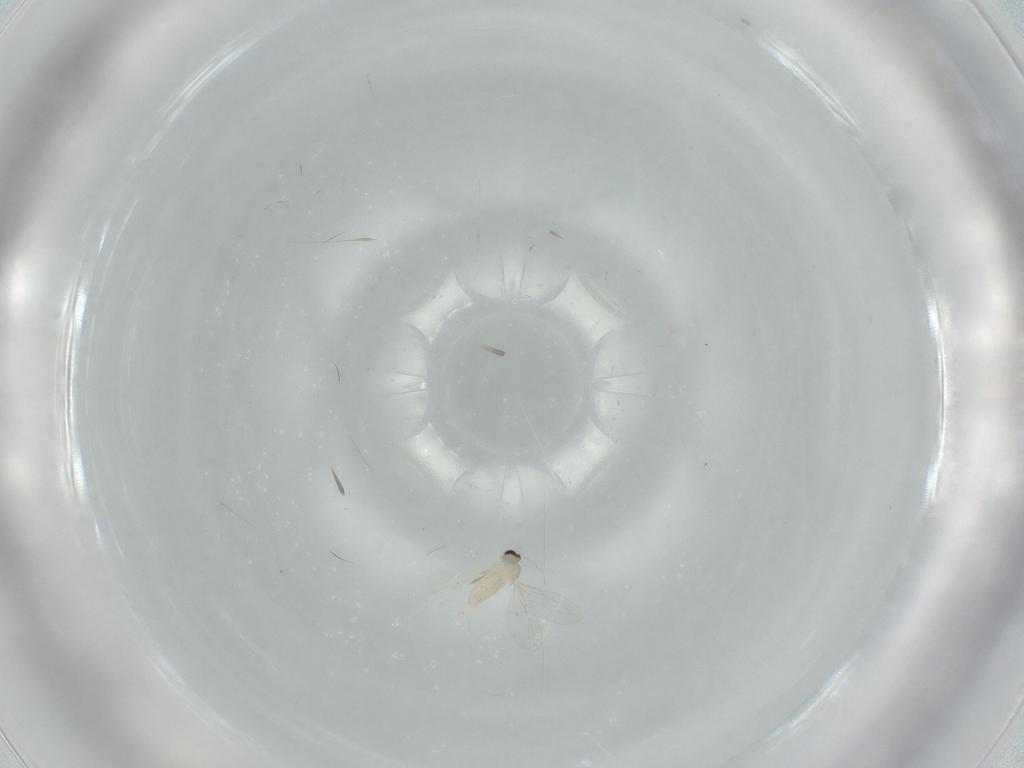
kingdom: Animalia
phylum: Arthropoda
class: Insecta
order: Diptera
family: Cecidomyiidae
